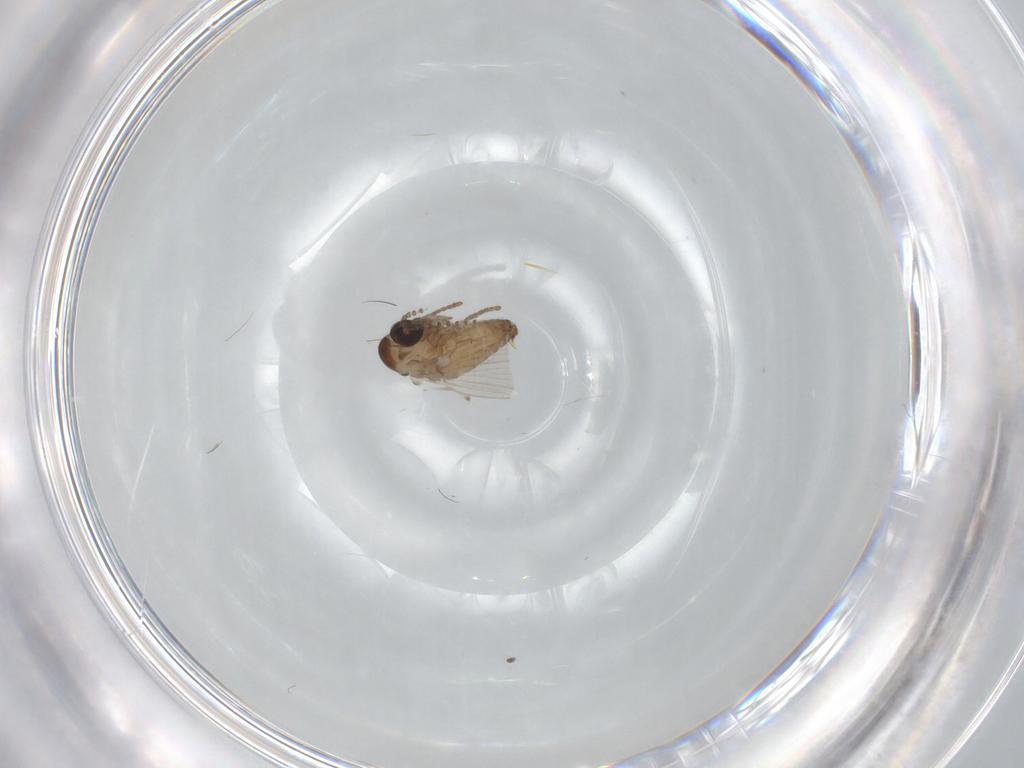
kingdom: Animalia
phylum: Arthropoda
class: Insecta
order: Diptera
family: Psychodidae
